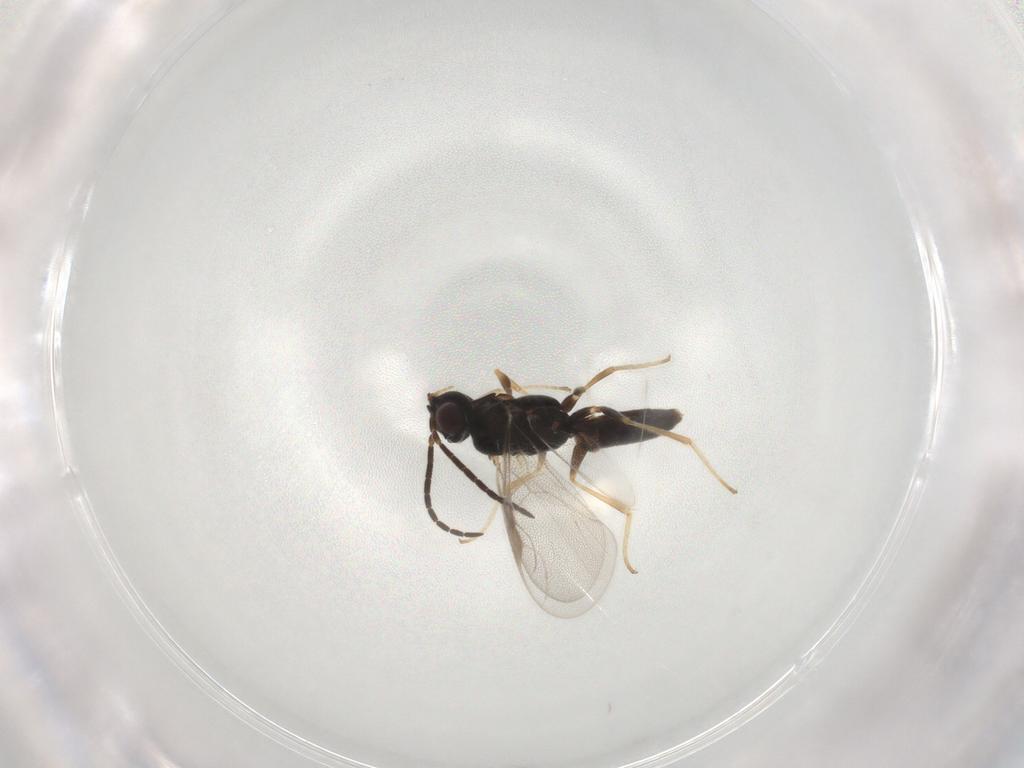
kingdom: Animalia
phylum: Arthropoda
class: Insecta
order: Hymenoptera
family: Dryinidae
